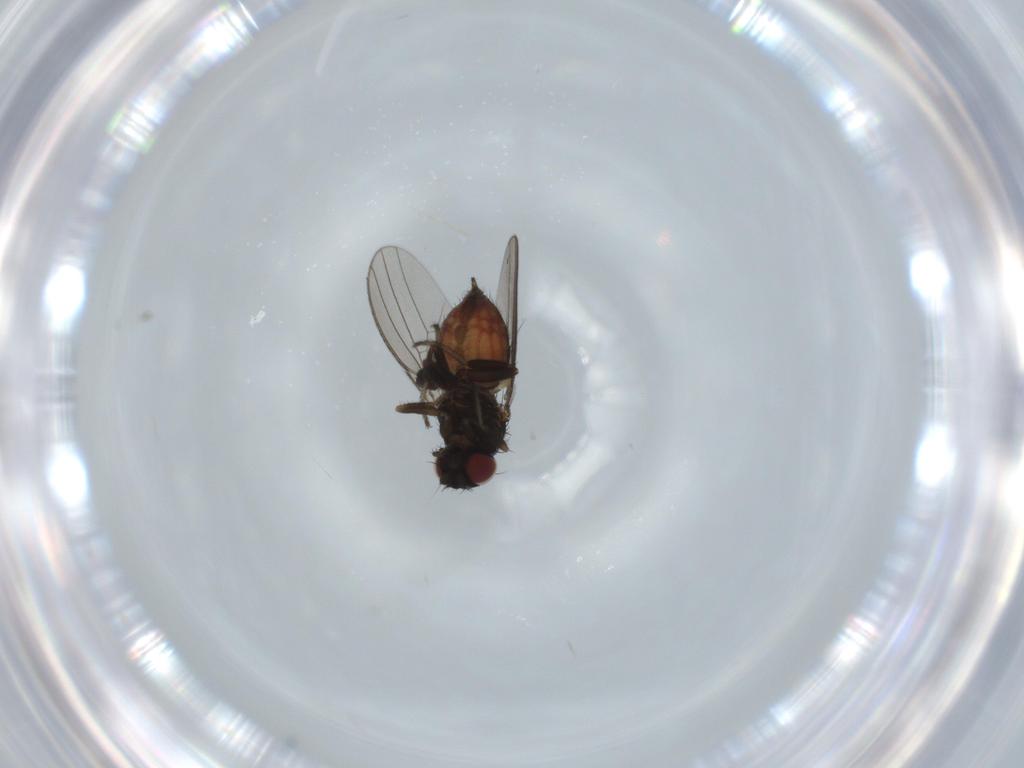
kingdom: Animalia
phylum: Arthropoda
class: Insecta
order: Diptera
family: Milichiidae
